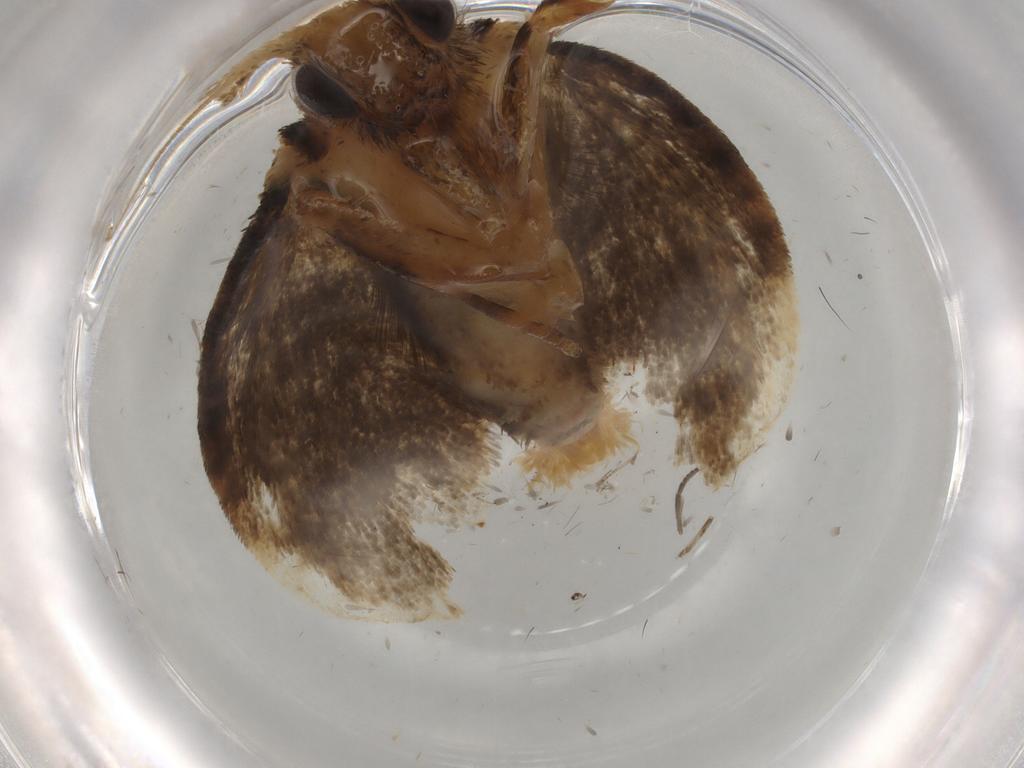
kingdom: Animalia
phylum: Arthropoda
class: Insecta
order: Lepidoptera
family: Tineidae
